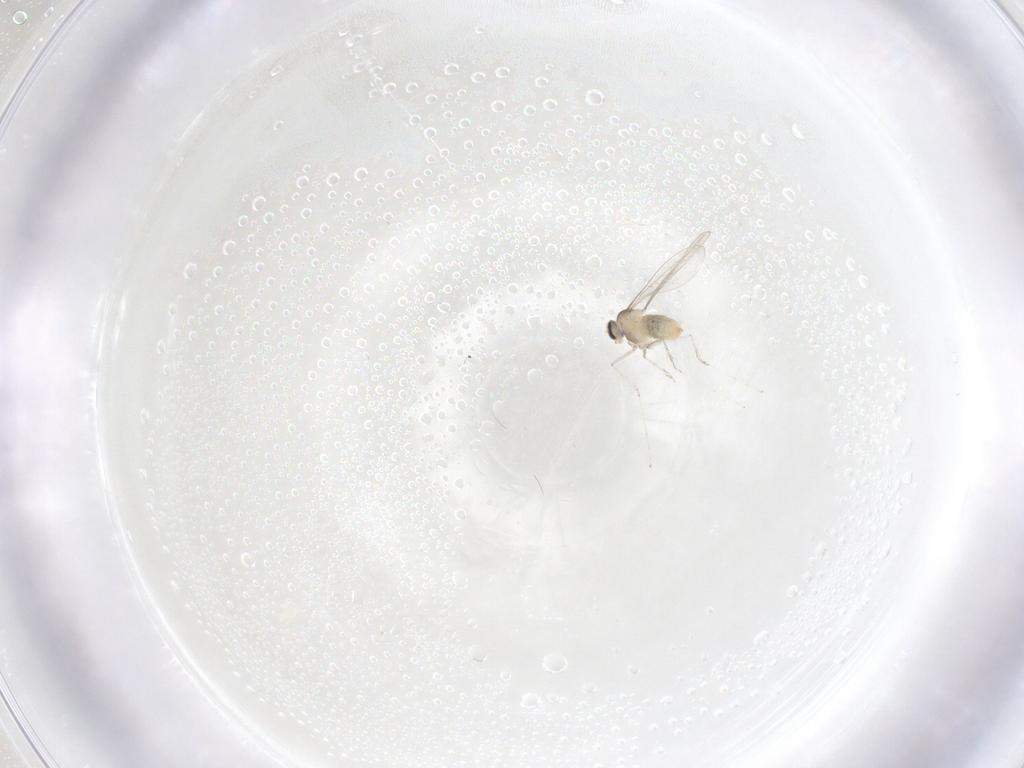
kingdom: Animalia
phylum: Arthropoda
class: Insecta
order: Diptera
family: Cecidomyiidae
